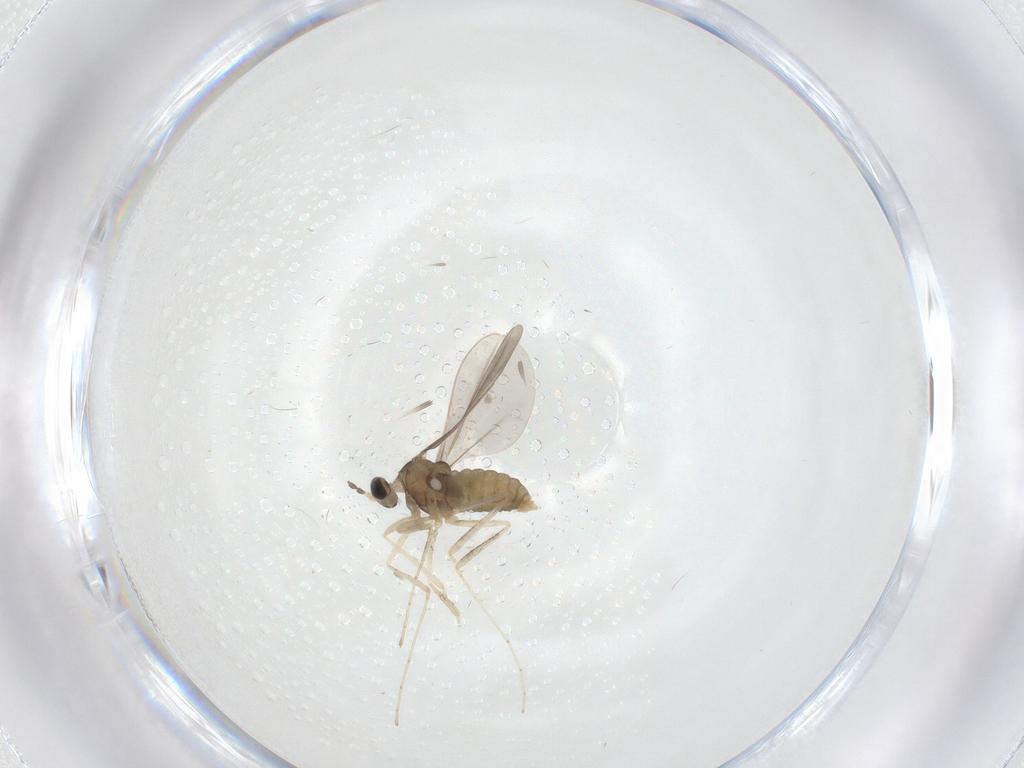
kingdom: Animalia
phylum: Arthropoda
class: Insecta
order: Diptera
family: Cecidomyiidae
